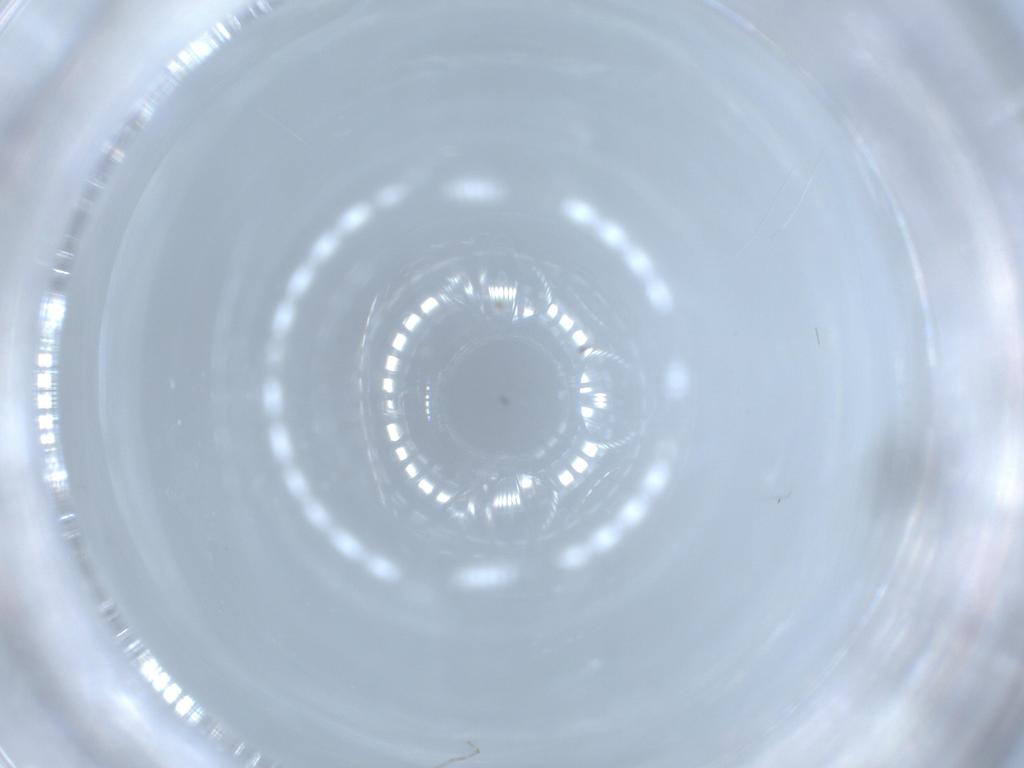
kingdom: Animalia
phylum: Arthropoda
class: Insecta
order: Diptera
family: Chironomidae
